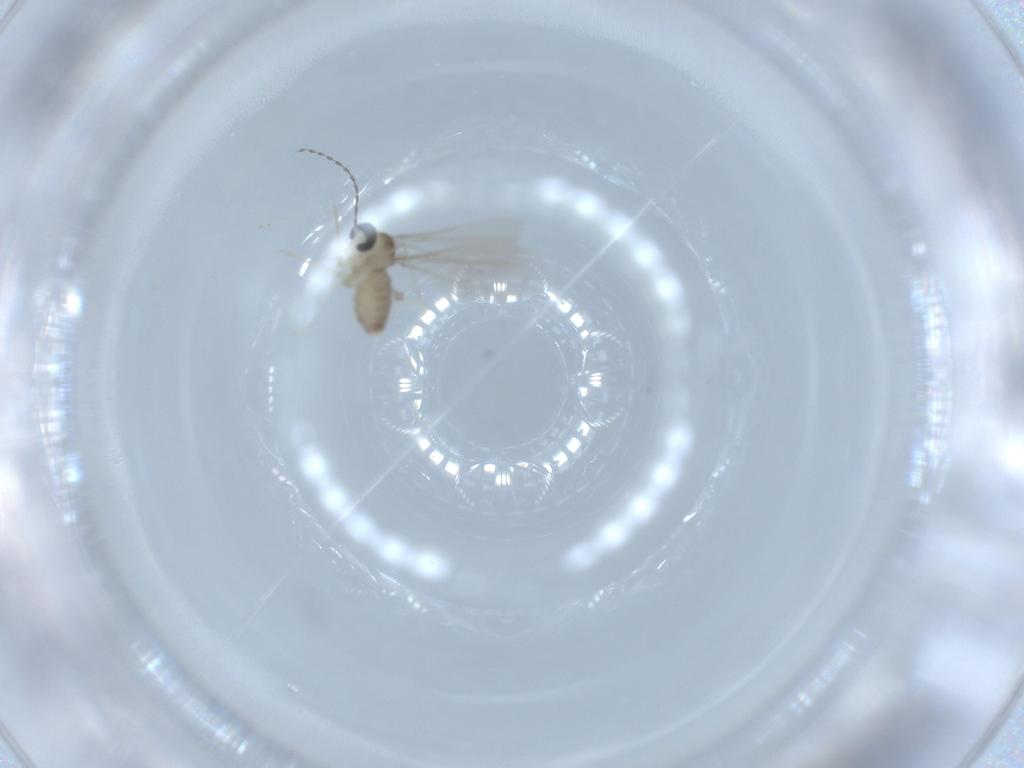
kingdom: Animalia
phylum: Arthropoda
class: Insecta
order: Diptera
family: Cecidomyiidae
